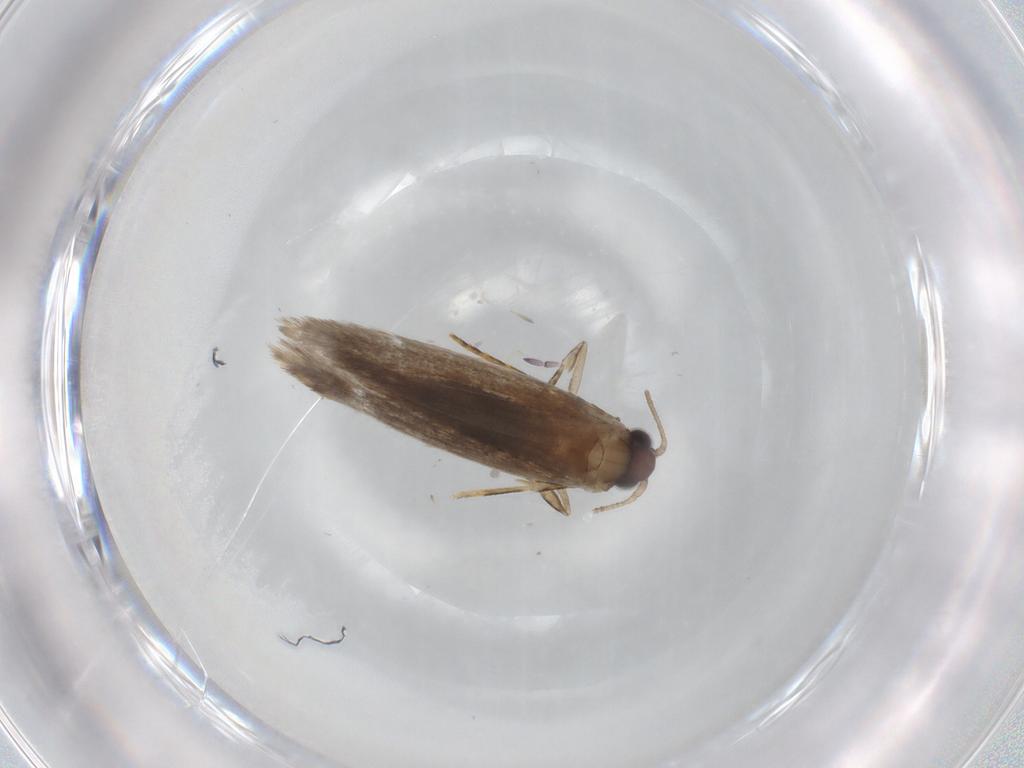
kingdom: Animalia
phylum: Arthropoda
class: Insecta
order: Lepidoptera
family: Tineidae
